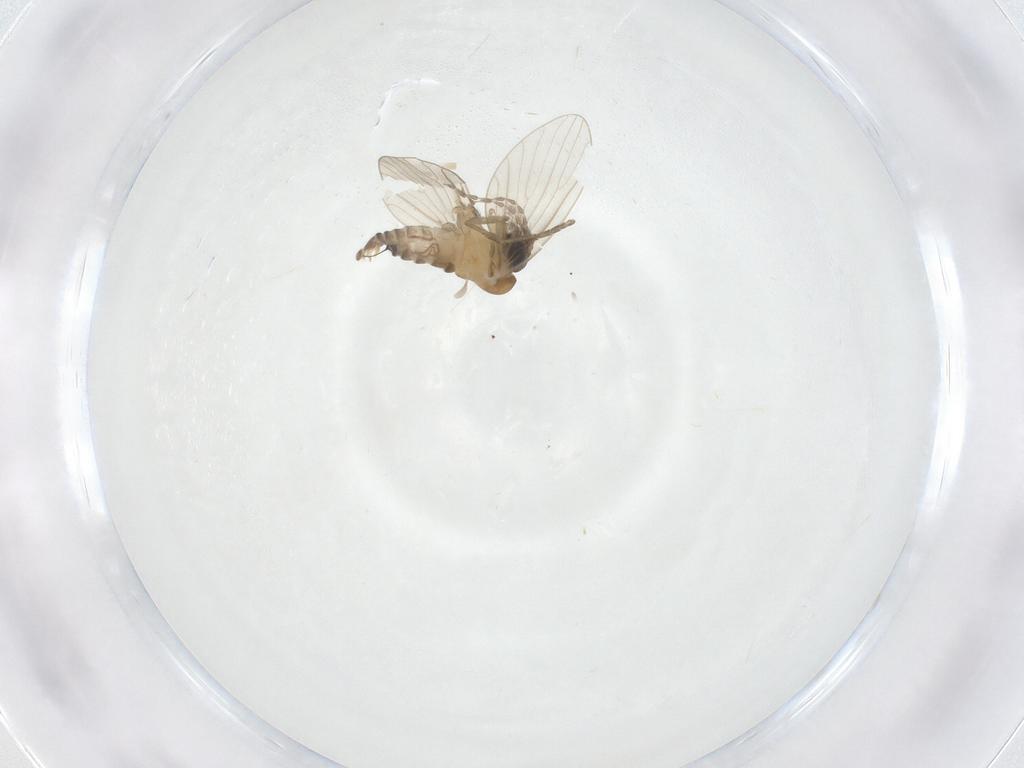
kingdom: Animalia
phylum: Arthropoda
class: Insecta
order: Diptera
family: Psychodidae
